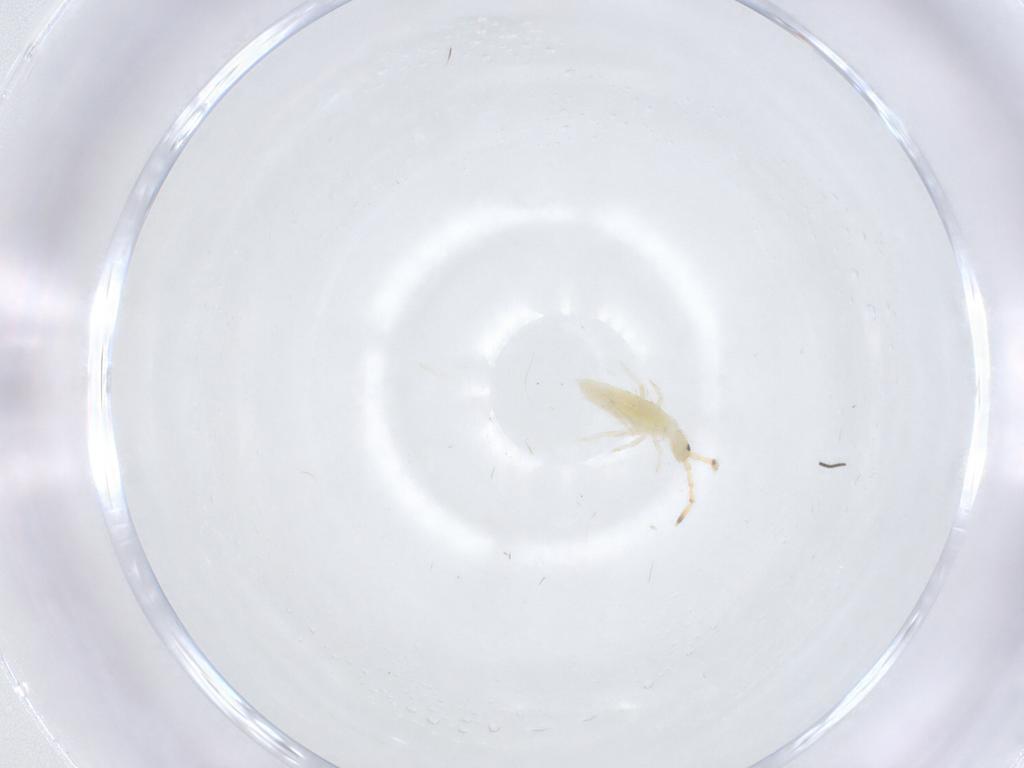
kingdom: Animalia
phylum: Arthropoda
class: Collembola
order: Entomobryomorpha
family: Entomobryidae
